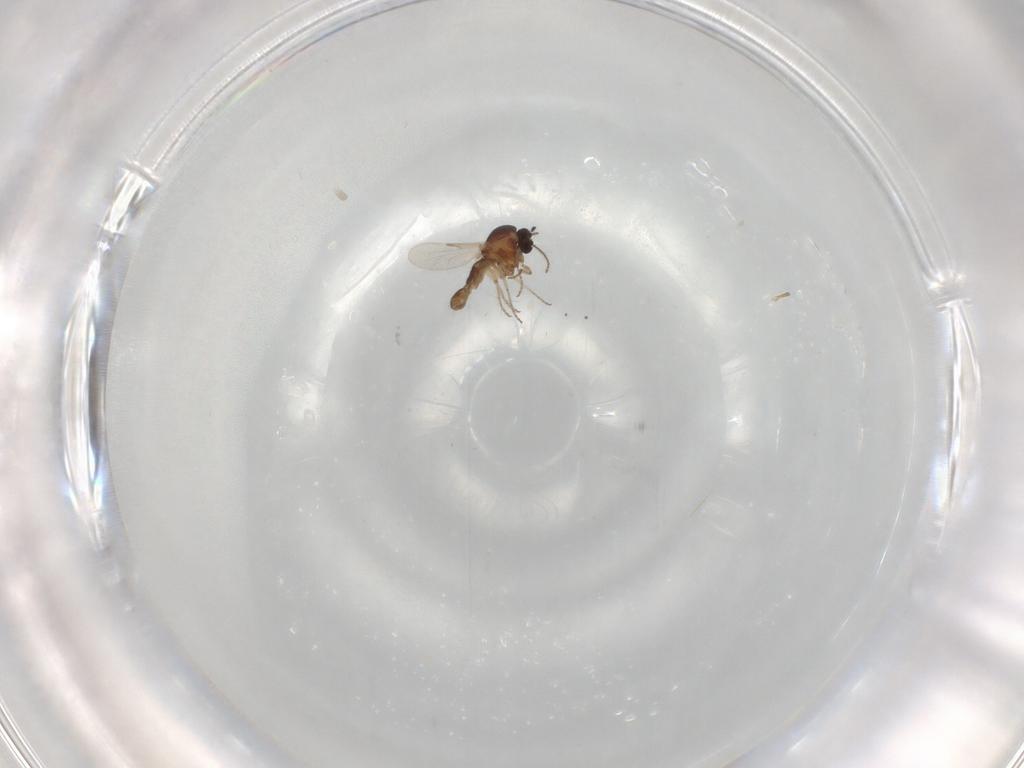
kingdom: Animalia
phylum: Arthropoda
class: Insecta
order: Diptera
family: Ceratopogonidae
